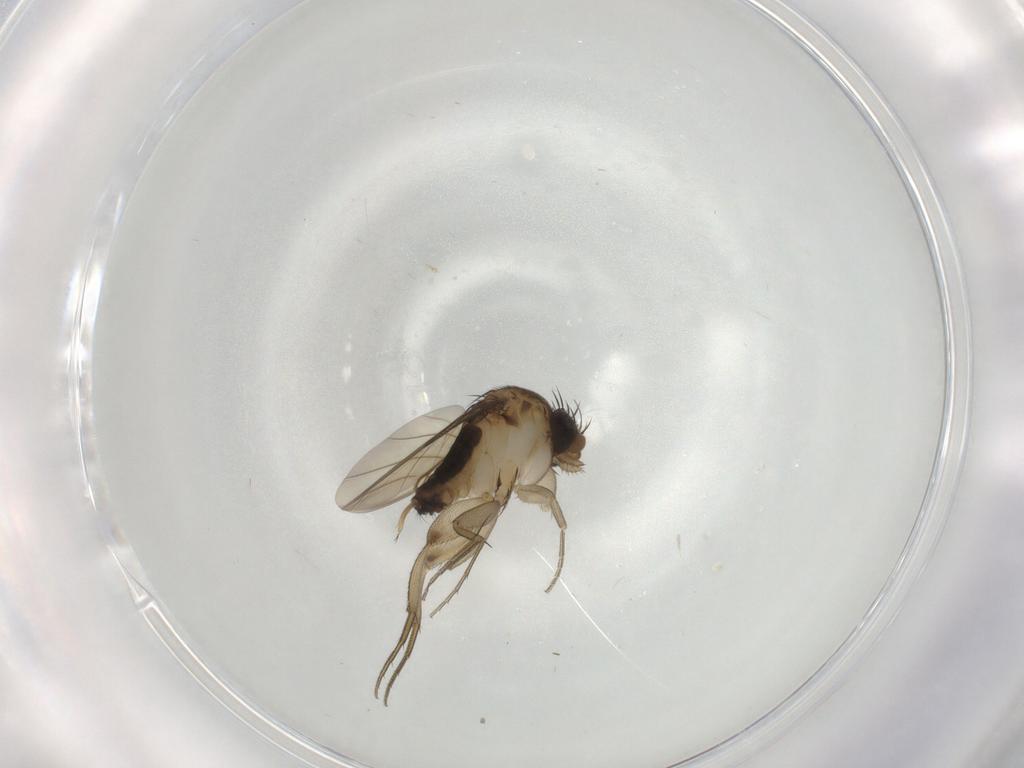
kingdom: Animalia
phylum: Arthropoda
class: Insecta
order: Diptera
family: Phoridae
